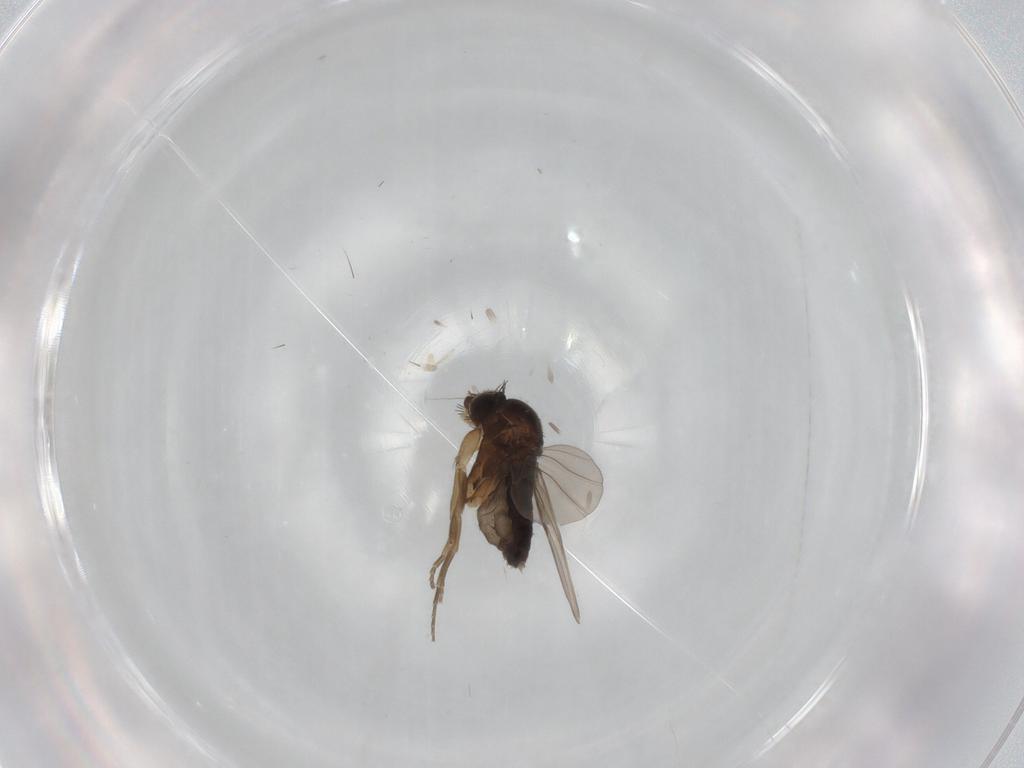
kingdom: Animalia
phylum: Arthropoda
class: Insecta
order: Diptera
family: Phoridae
